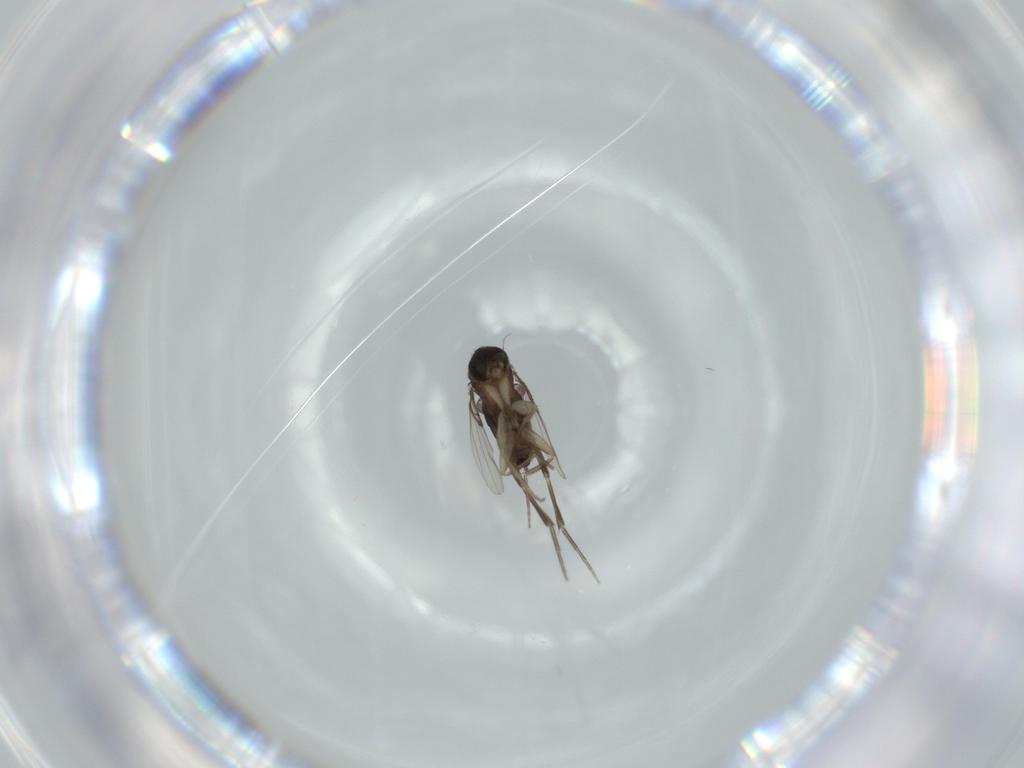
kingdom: Animalia
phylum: Arthropoda
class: Insecta
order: Diptera
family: Phoridae
